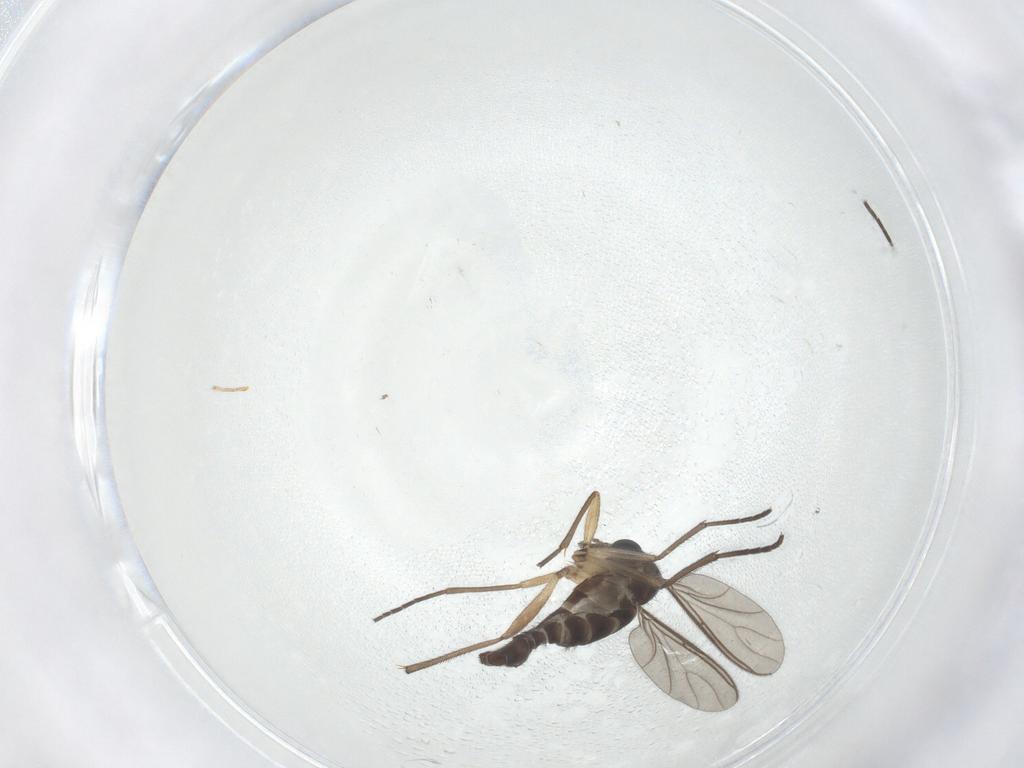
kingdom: Animalia
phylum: Arthropoda
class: Insecta
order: Diptera
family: Sciaridae
